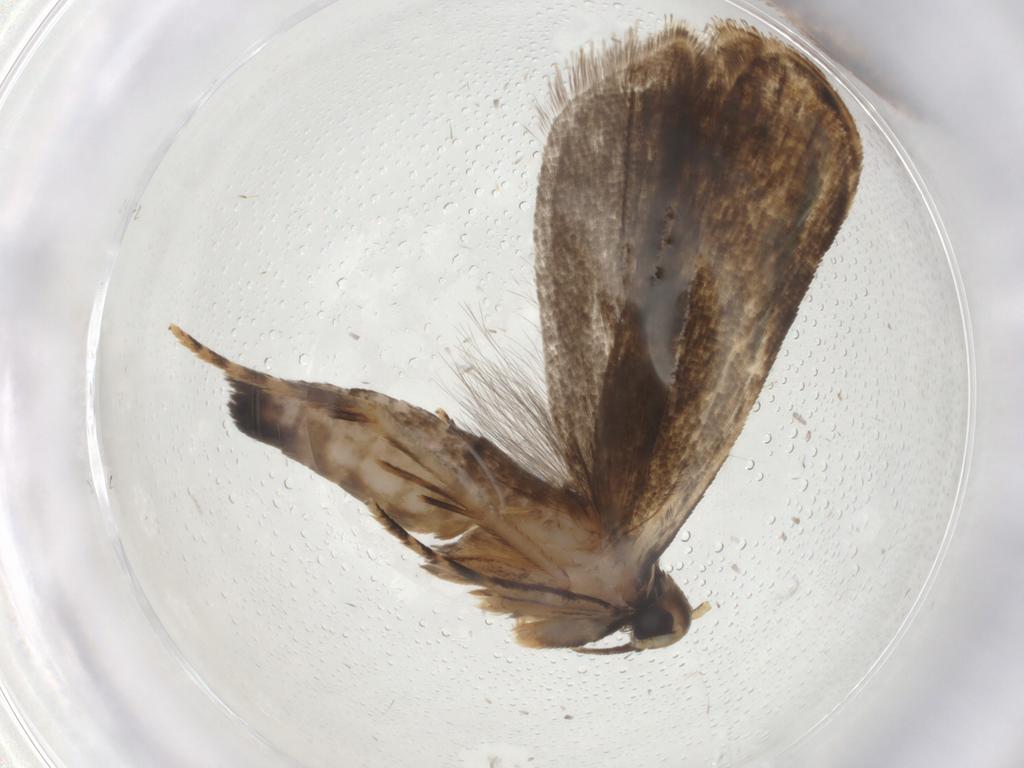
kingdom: Animalia
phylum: Arthropoda
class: Insecta
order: Lepidoptera
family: Gelechiidae
